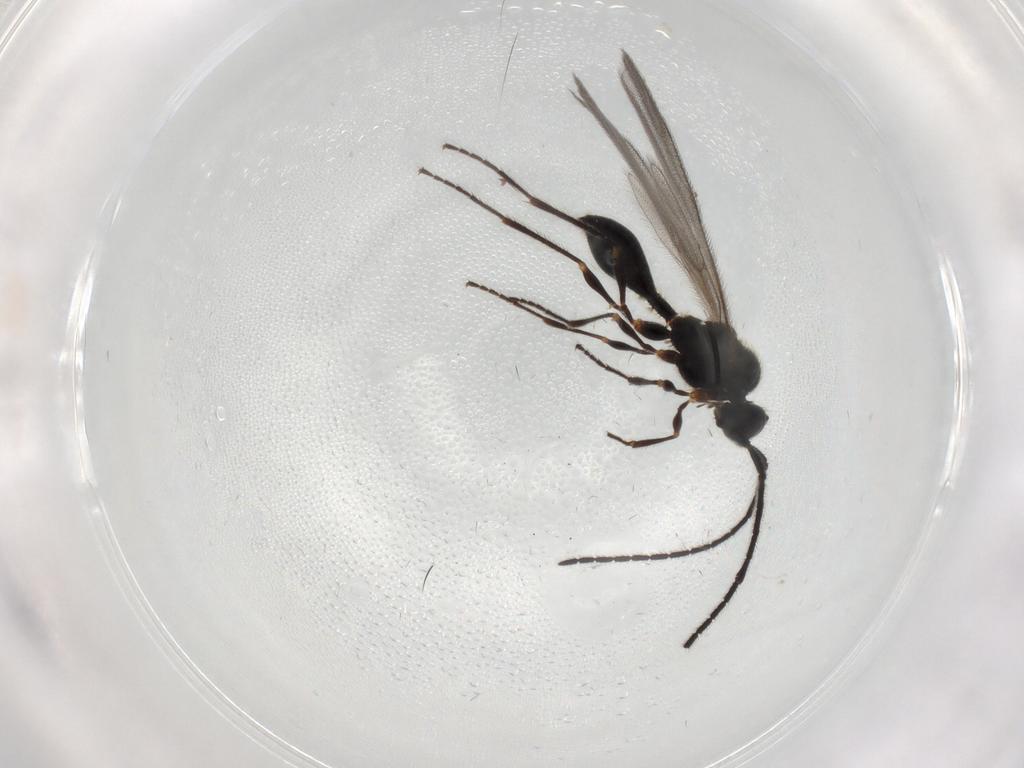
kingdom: Animalia
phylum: Arthropoda
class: Insecta
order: Hymenoptera
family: Diapriidae
